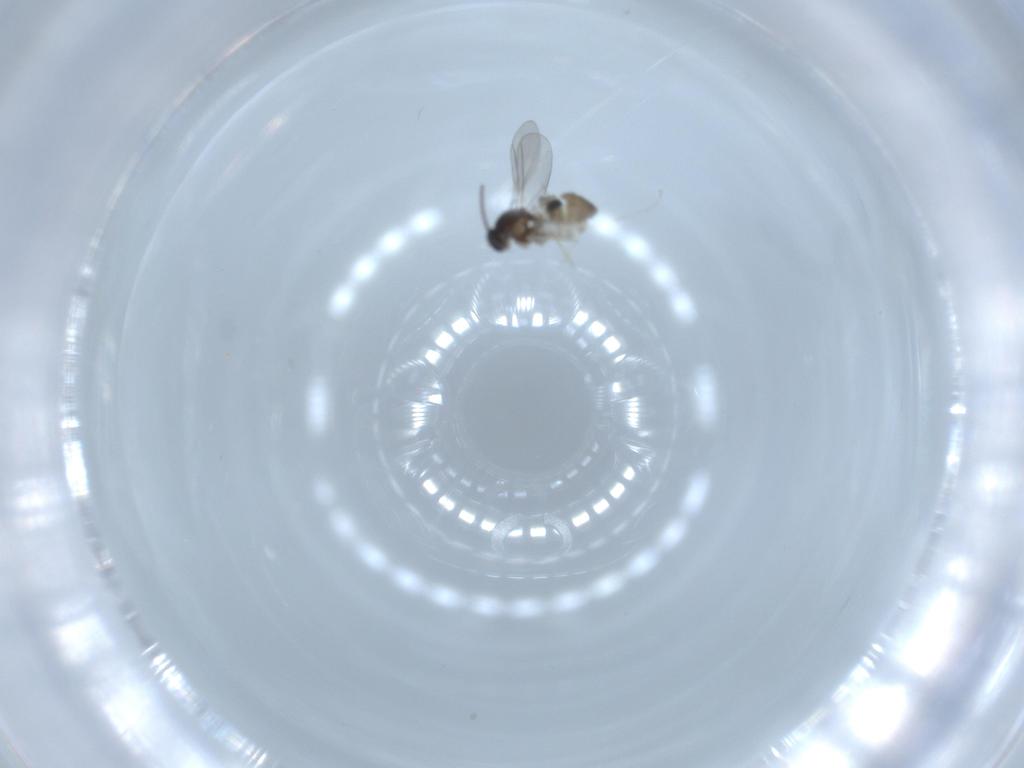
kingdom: Animalia
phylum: Arthropoda
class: Insecta
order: Diptera
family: Cecidomyiidae
